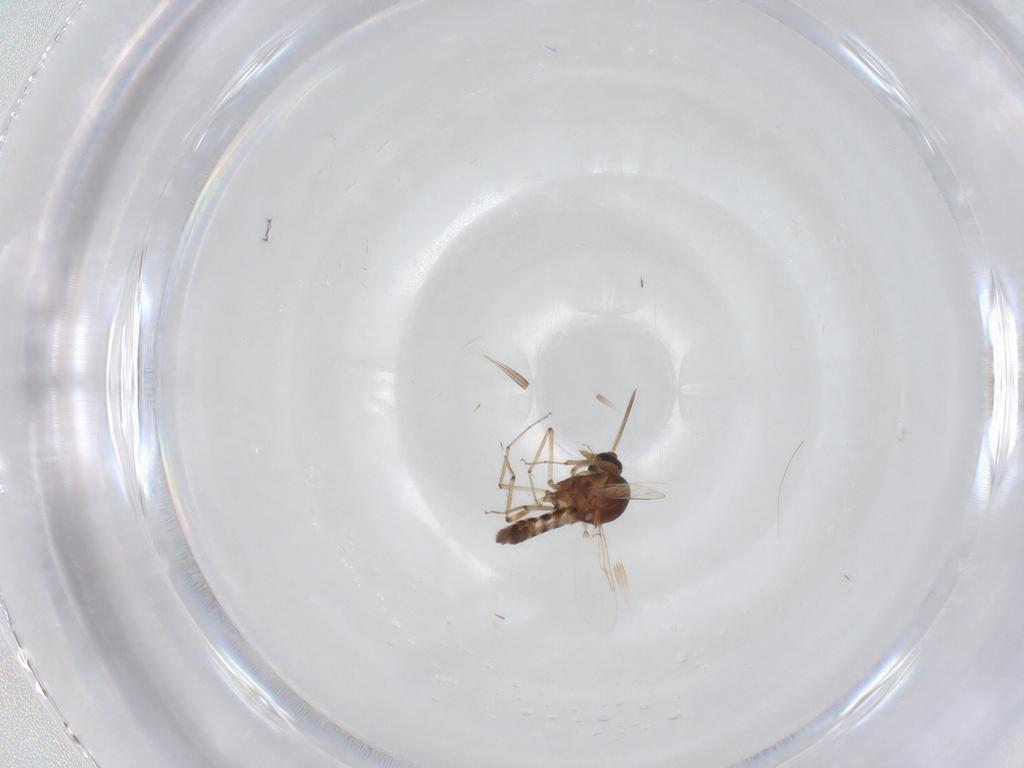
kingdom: Animalia
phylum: Arthropoda
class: Insecta
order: Diptera
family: Ceratopogonidae
